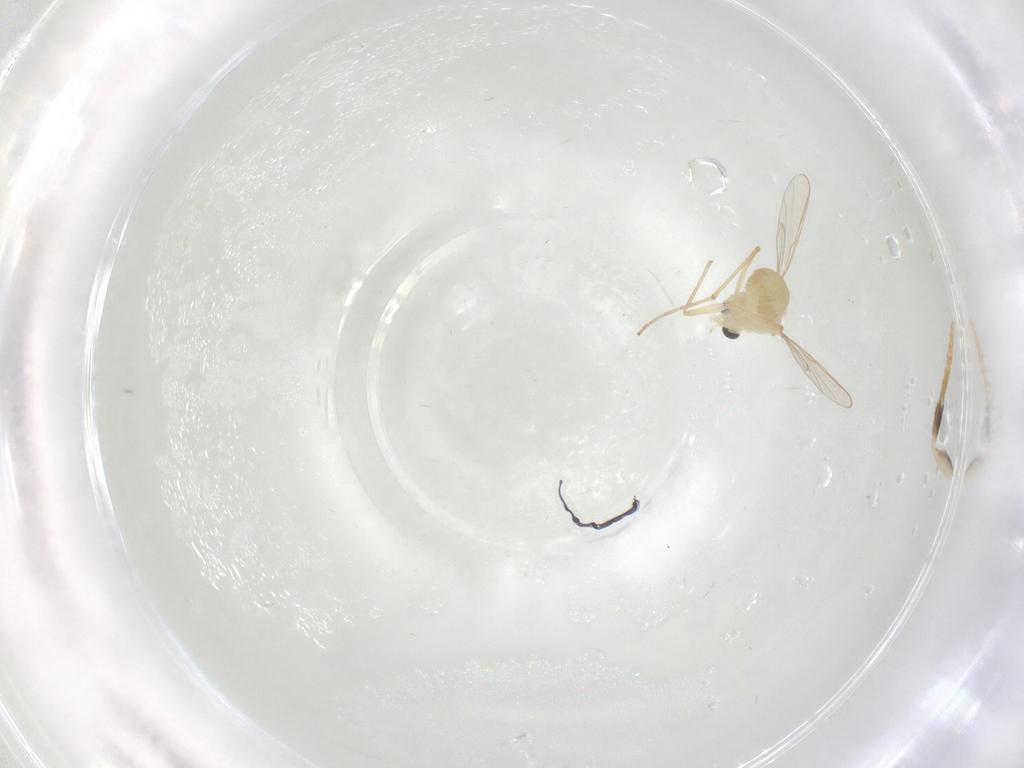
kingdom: Animalia
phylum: Arthropoda
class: Insecta
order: Diptera
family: Chironomidae
